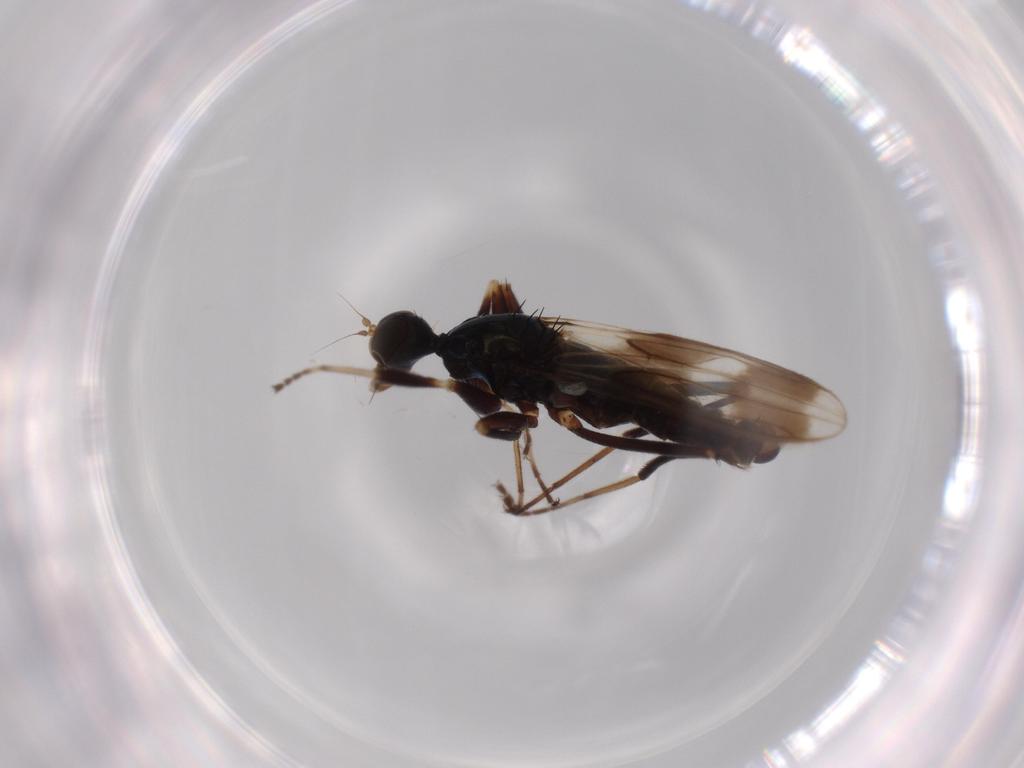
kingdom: Animalia
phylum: Arthropoda
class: Insecta
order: Diptera
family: Hybotidae
